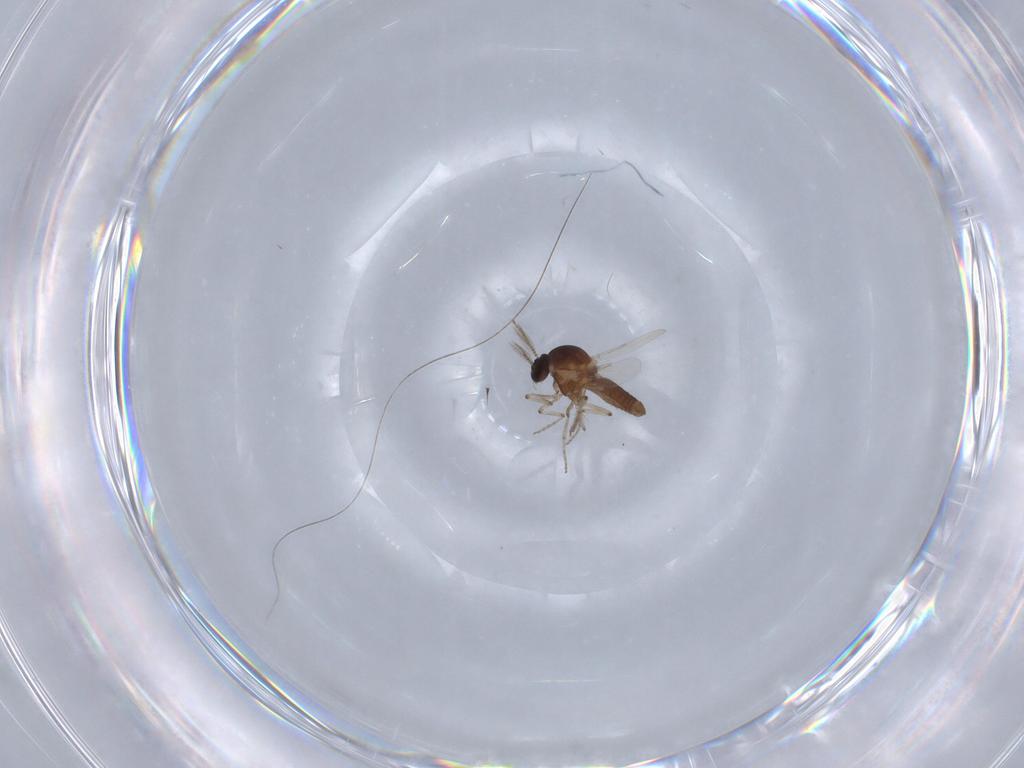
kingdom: Animalia
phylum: Arthropoda
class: Insecta
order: Diptera
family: Ceratopogonidae
